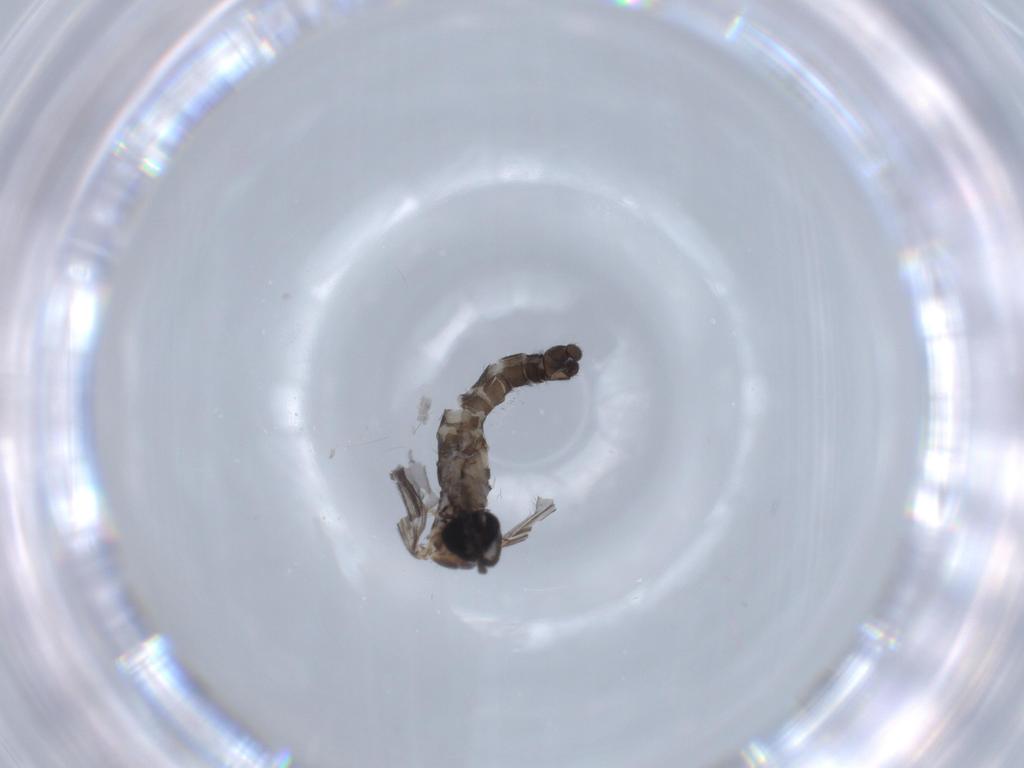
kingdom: Animalia
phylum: Arthropoda
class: Insecta
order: Diptera
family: Sciaridae
